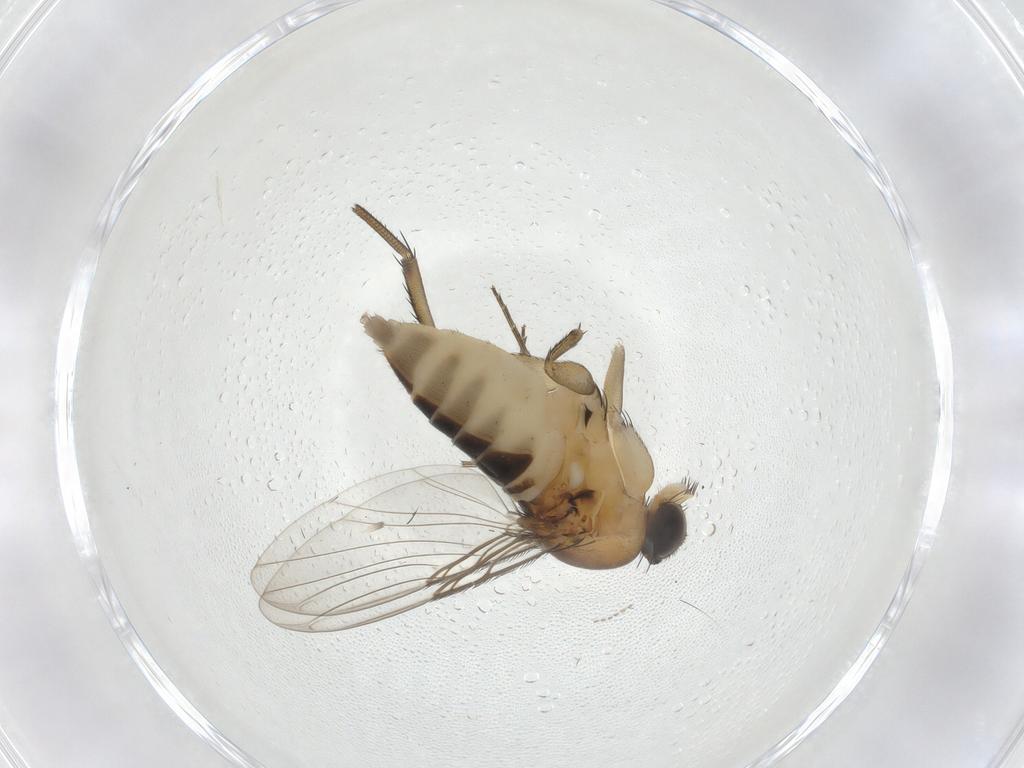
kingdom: Animalia
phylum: Arthropoda
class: Insecta
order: Diptera
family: Phoridae
